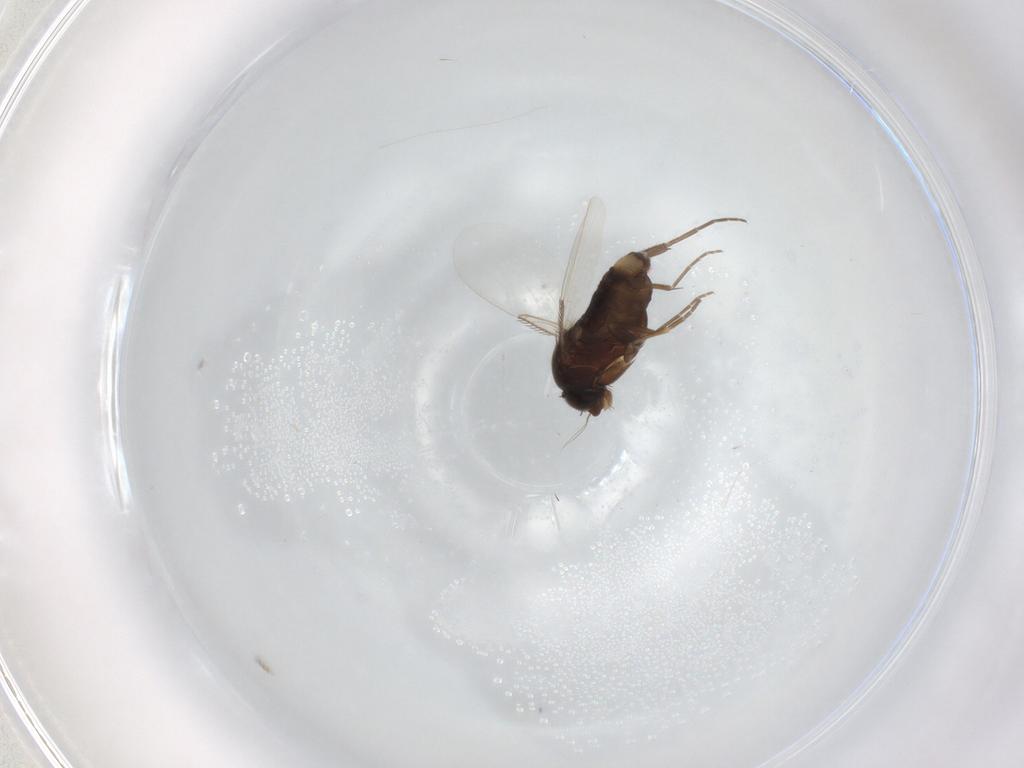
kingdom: Animalia
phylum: Arthropoda
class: Insecta
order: Diptera
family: Phoridae
